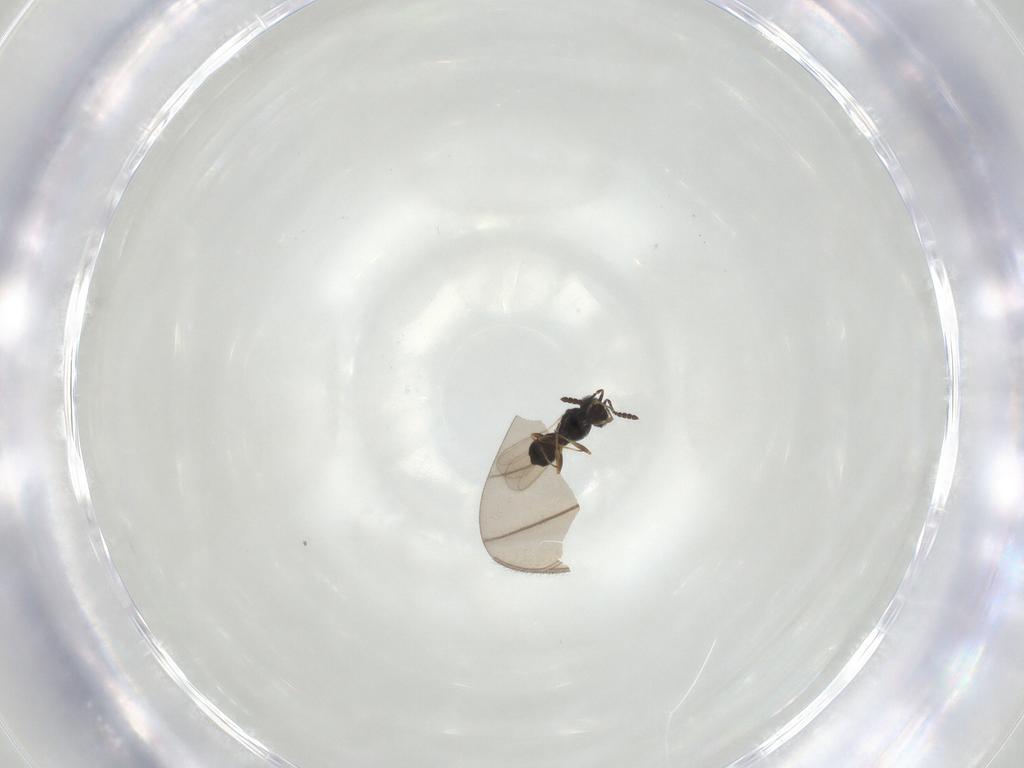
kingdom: Animalia
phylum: Arthropoda
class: Insecta
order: Hymenoptera
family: Scelionidae
